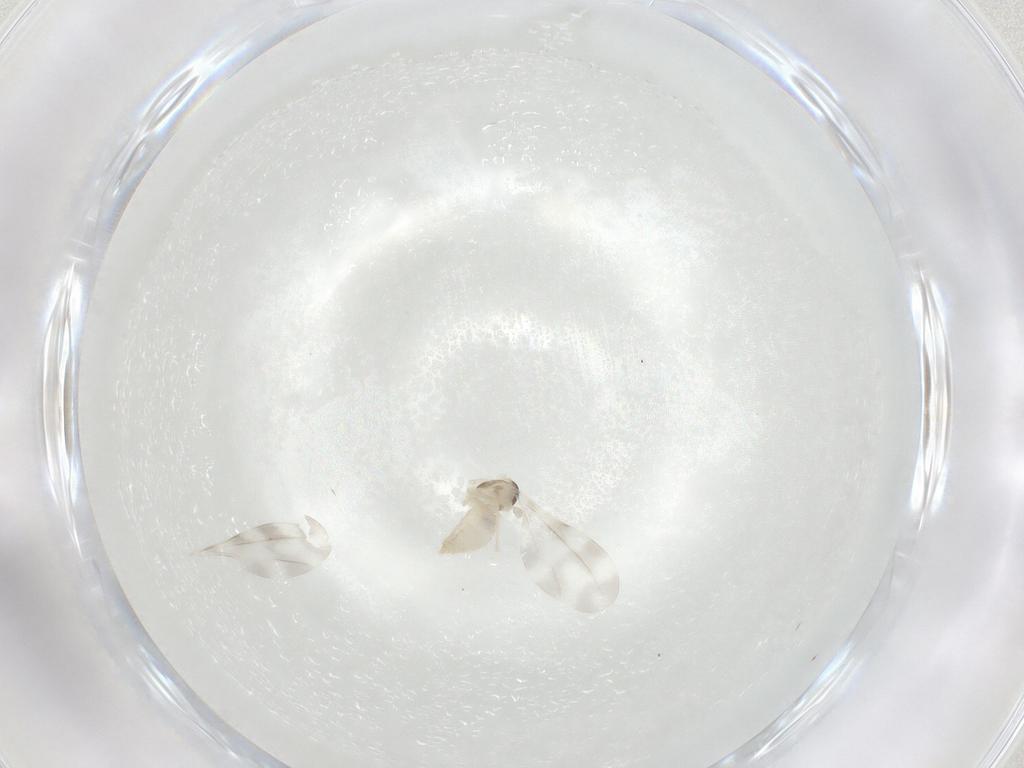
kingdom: Animalia
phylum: Arthropoda
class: Insecta
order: Diptera
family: Cecidomyiidae
